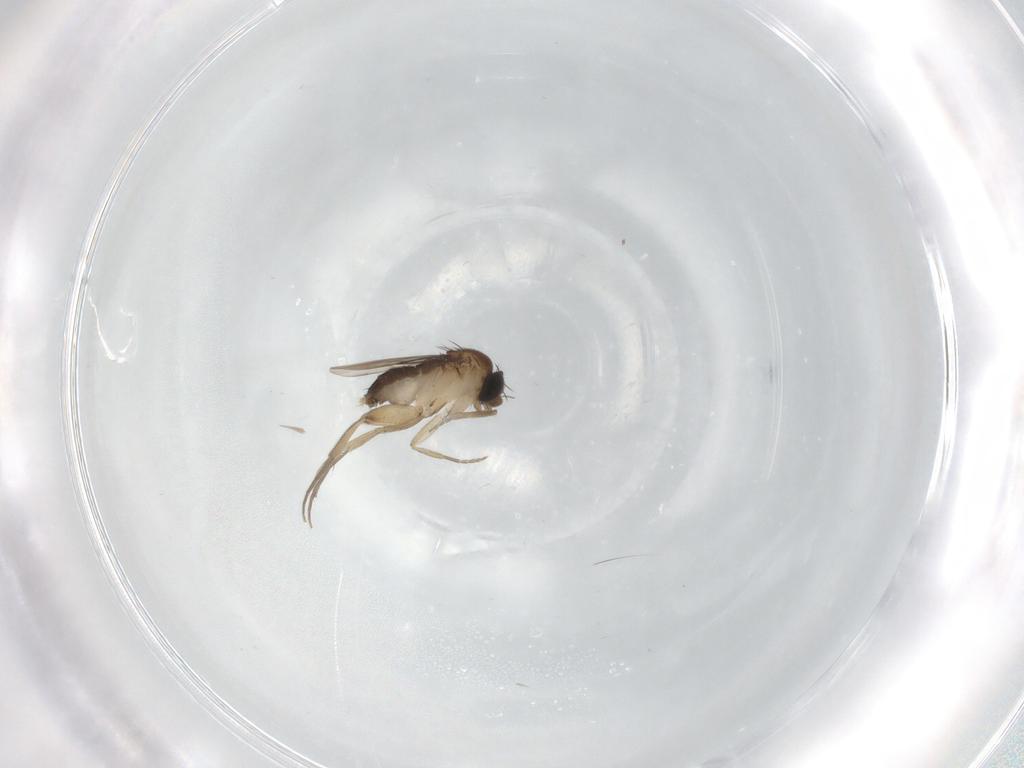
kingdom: Animalia
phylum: Arthropoda
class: Insecta
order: Diptera
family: Phoridae
